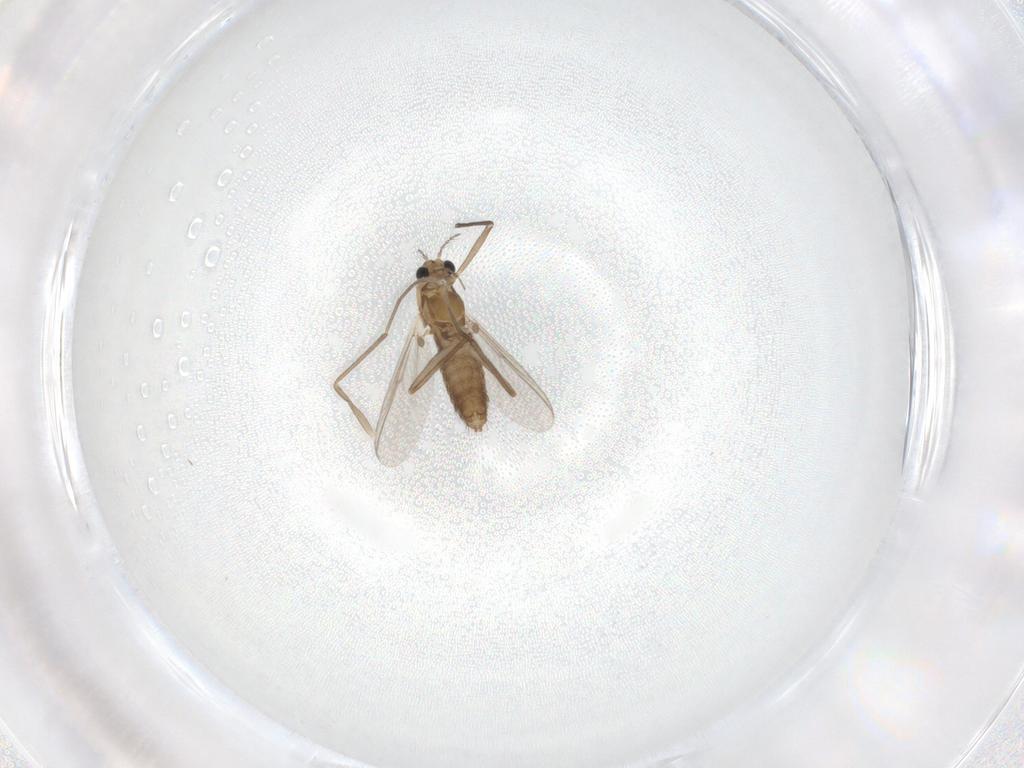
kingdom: Animalia
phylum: Arthropoda
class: Insecta
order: Diptera
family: Chironomidae
